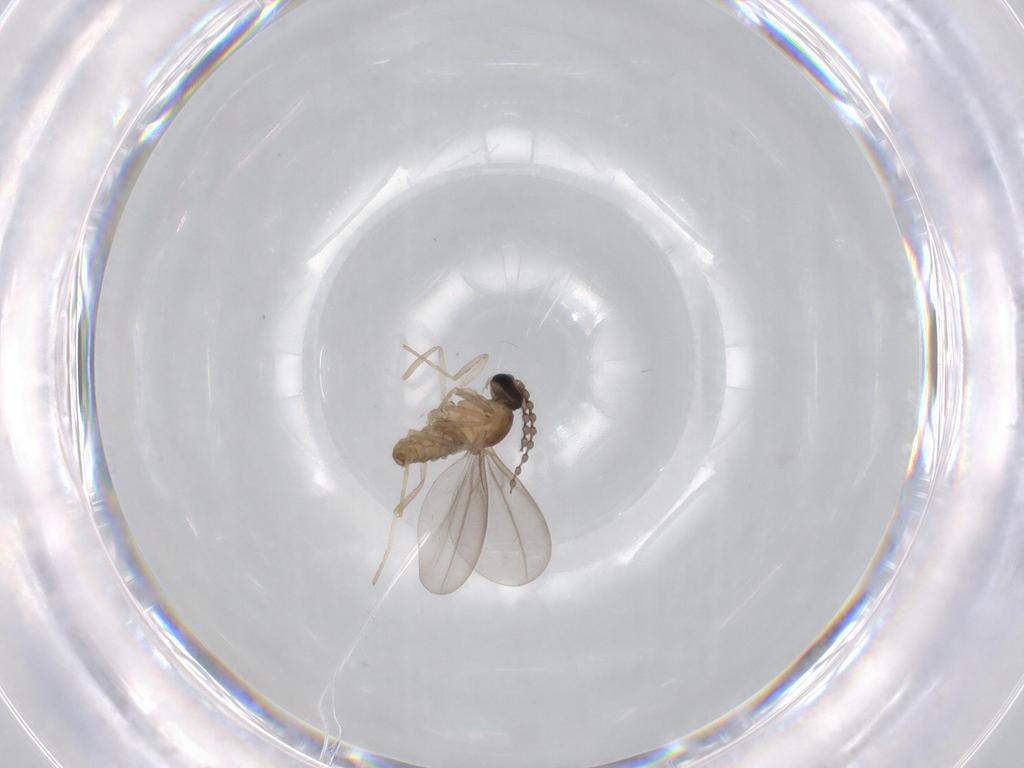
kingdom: Animalia
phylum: Arthropoda
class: Insecta
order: Diptera
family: Cecidomyiidae
